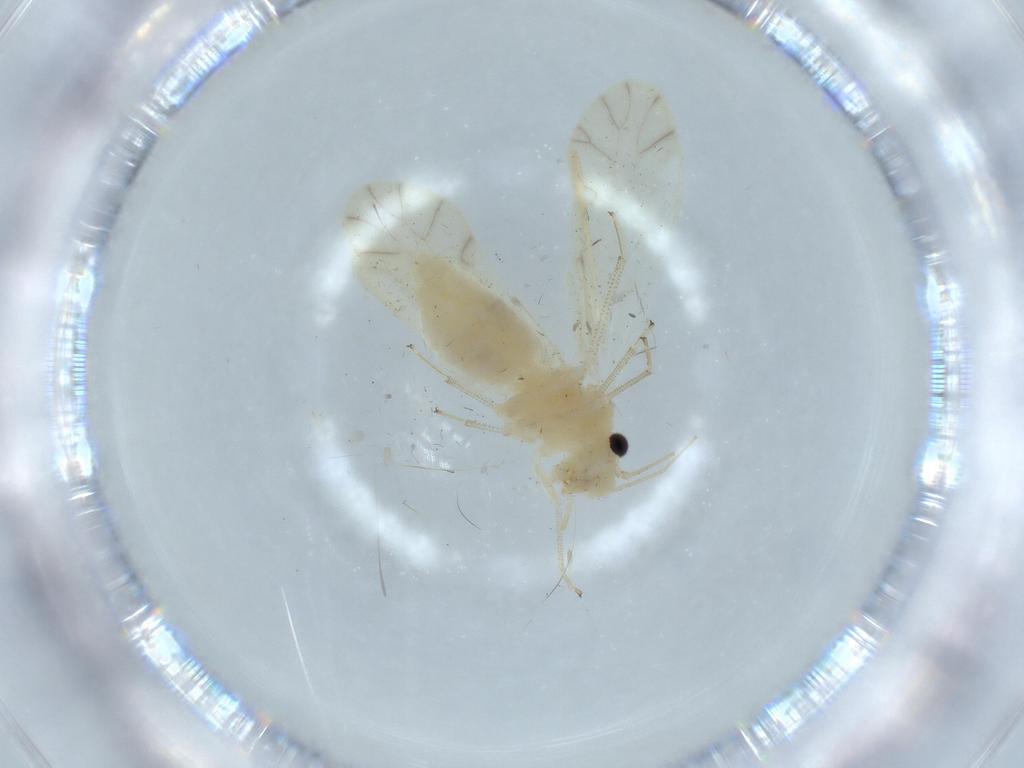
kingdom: Animalia
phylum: Arthropoda
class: Insecta
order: Psocodea
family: Caeciliusidae
